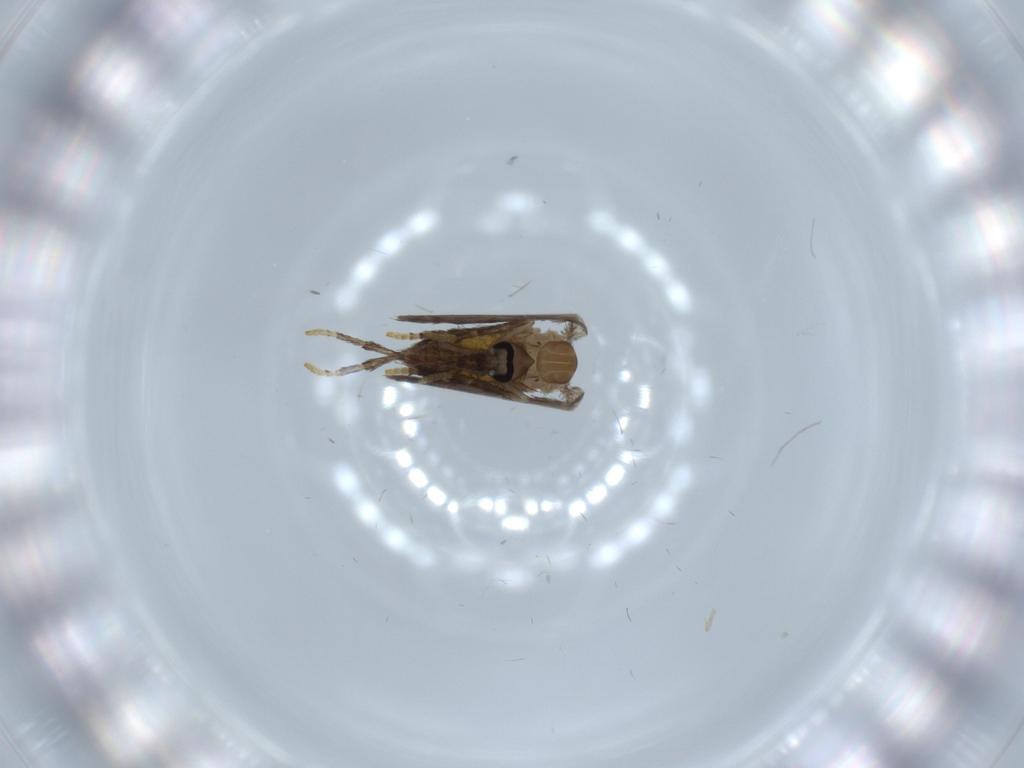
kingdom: Animalia
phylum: Arthropoda
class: Insecta
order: Diptera
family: Psychodidae
